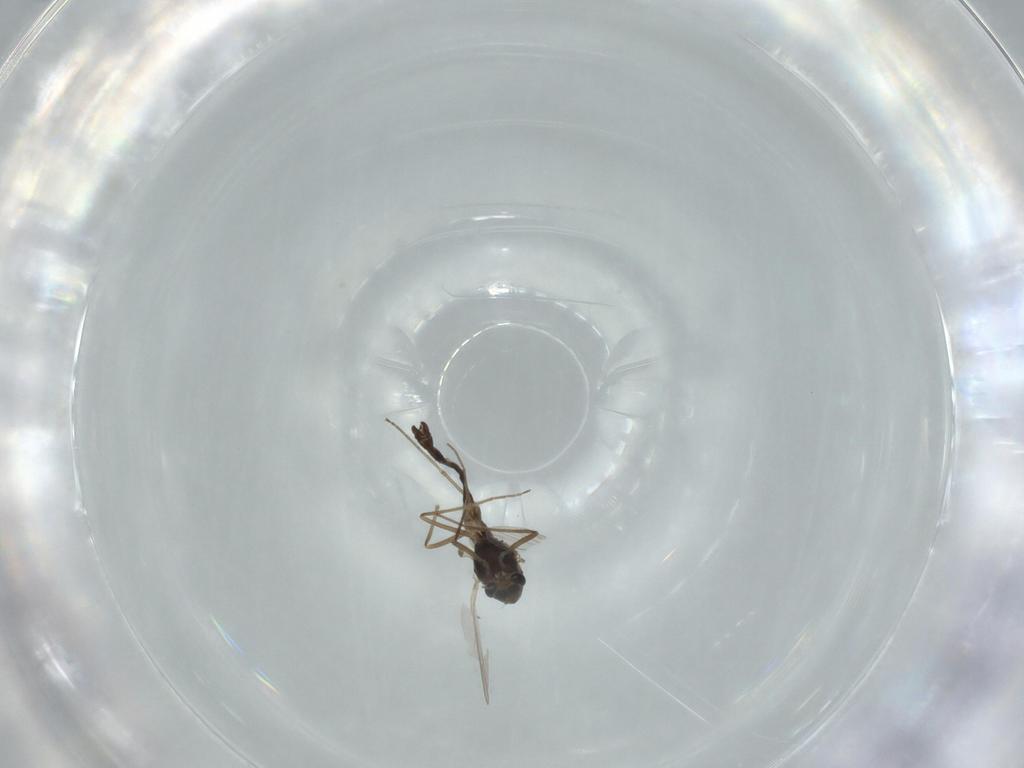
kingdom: Animalia
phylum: Arthropoda
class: Insecta
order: Diptera
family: Chironomidae
